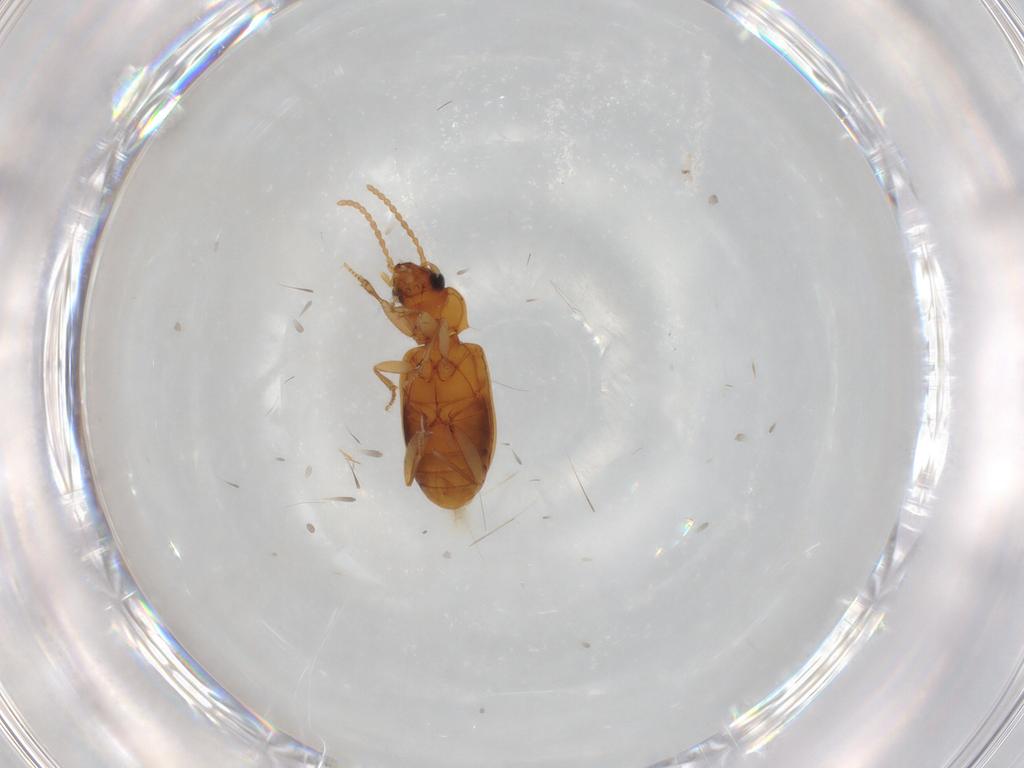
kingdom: Animalia
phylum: Arthropoda
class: Insecta
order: Coleoptera
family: Carabidae
